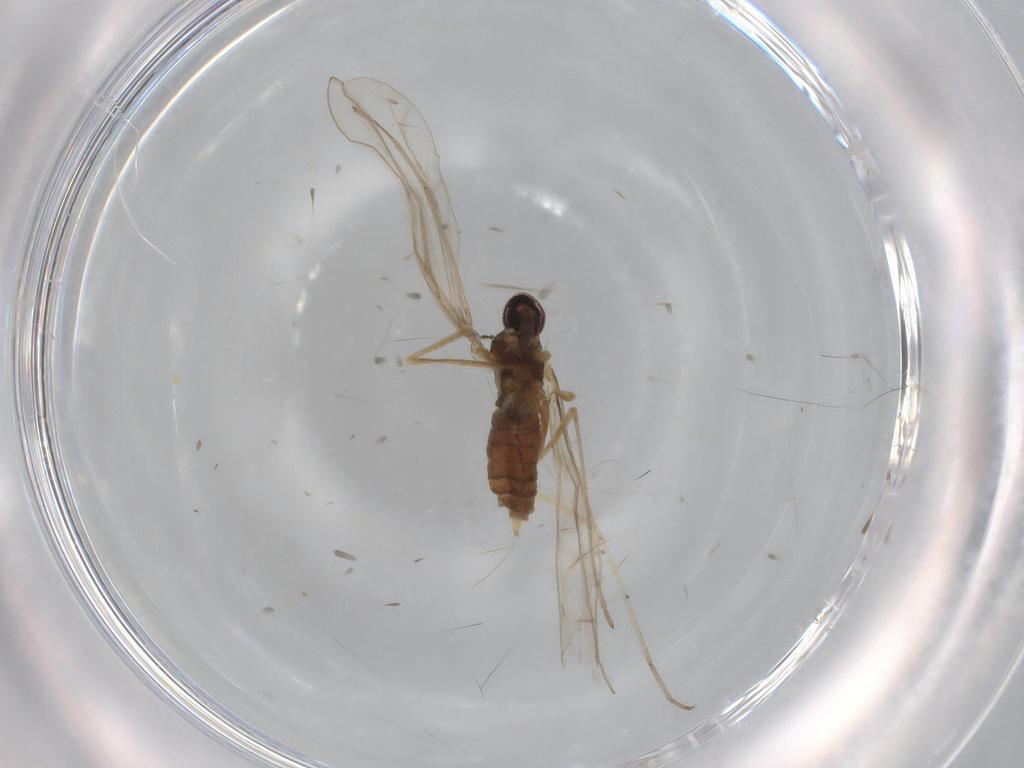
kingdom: Animalia
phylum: Arthropoda
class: Insecta
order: Diptera
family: Cecidomyiidae
